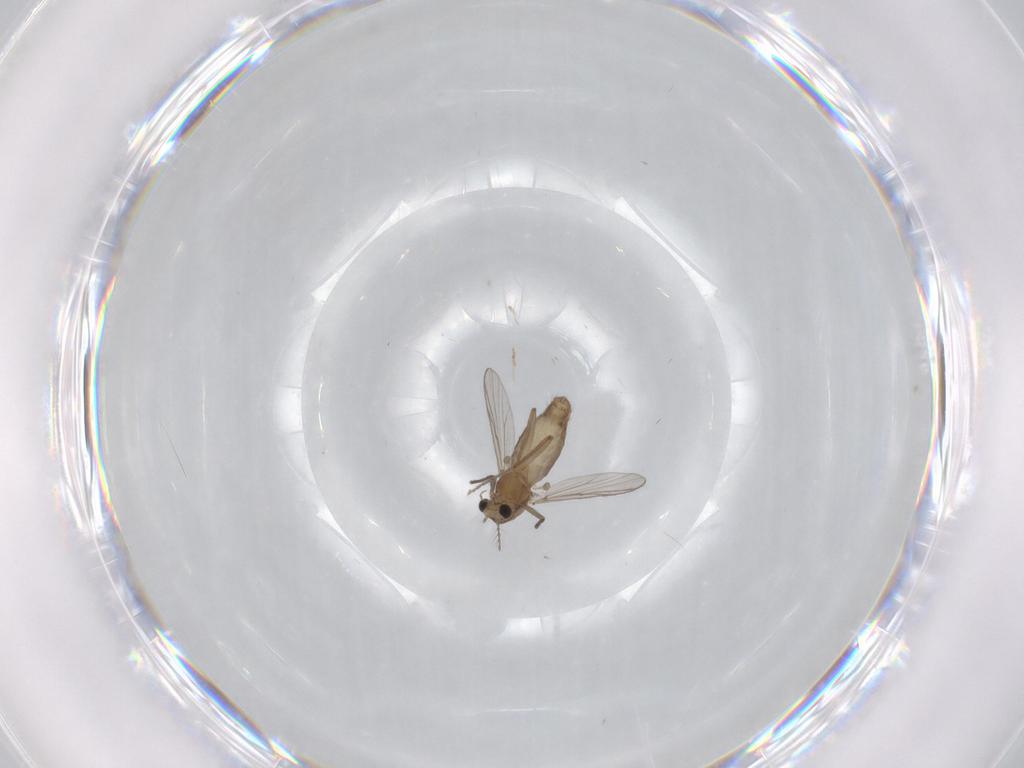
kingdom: Animalia
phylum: Arthropoda
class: Insecta
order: Diptera
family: Chironomidae
